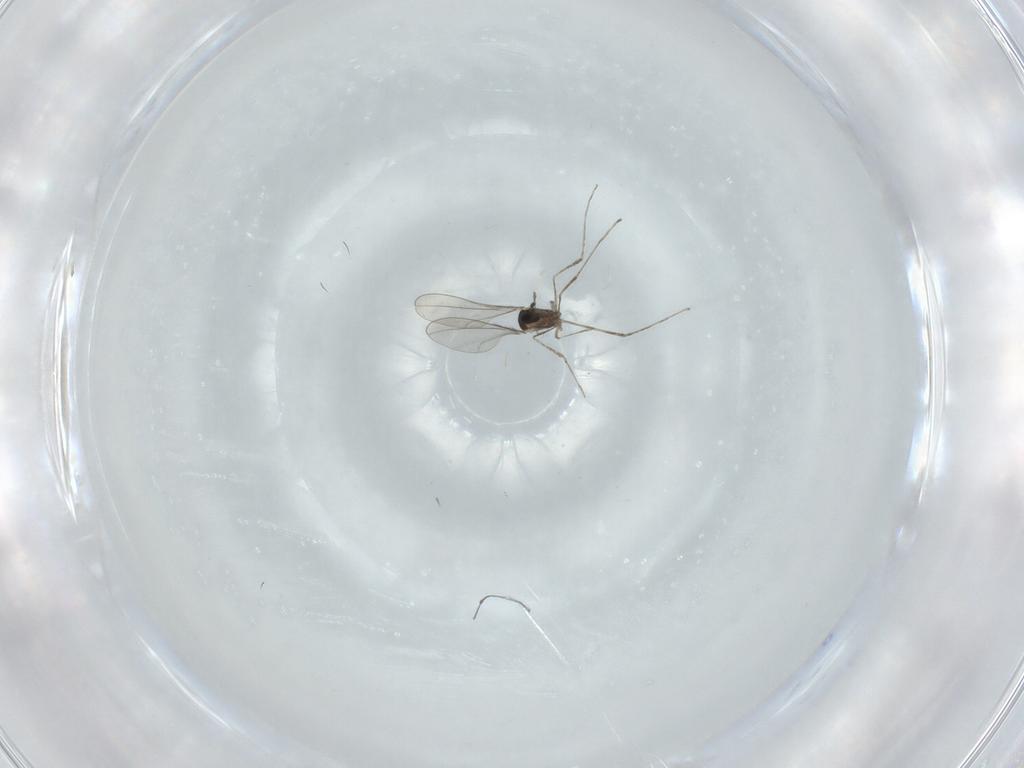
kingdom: Animalia
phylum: Arthropoda
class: Insecta
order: Diptera
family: Cecidomyiidae
